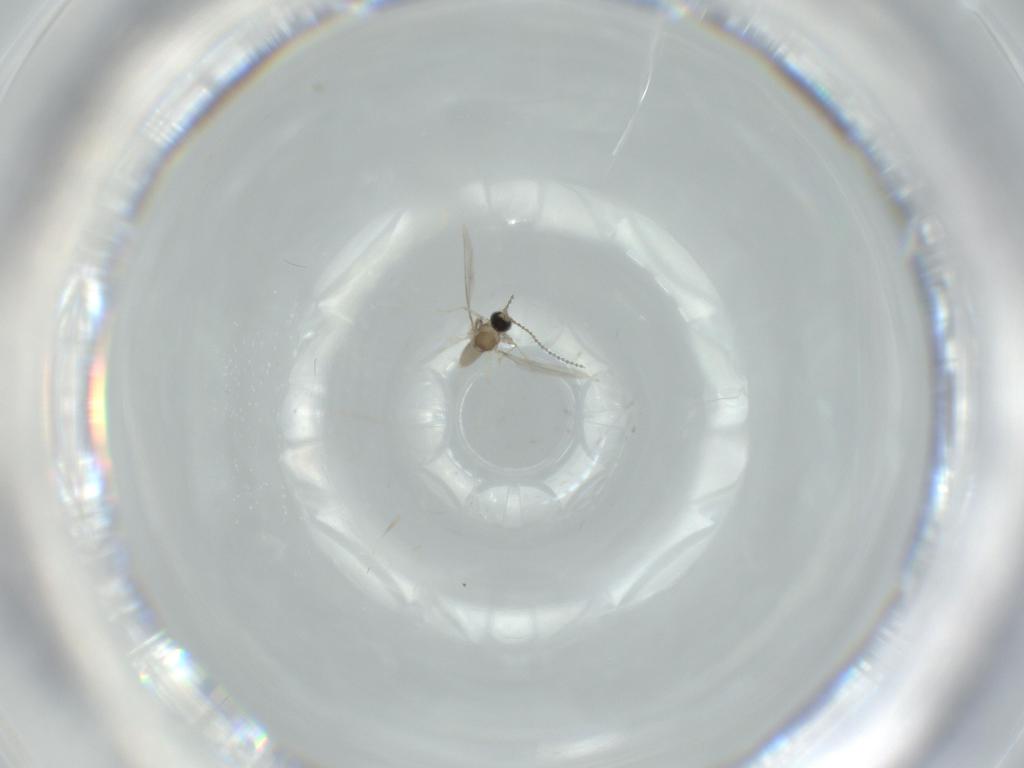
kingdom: Animalia
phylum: Arthropoda
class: Insecta
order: Diptera
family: Cecidomyiidae
